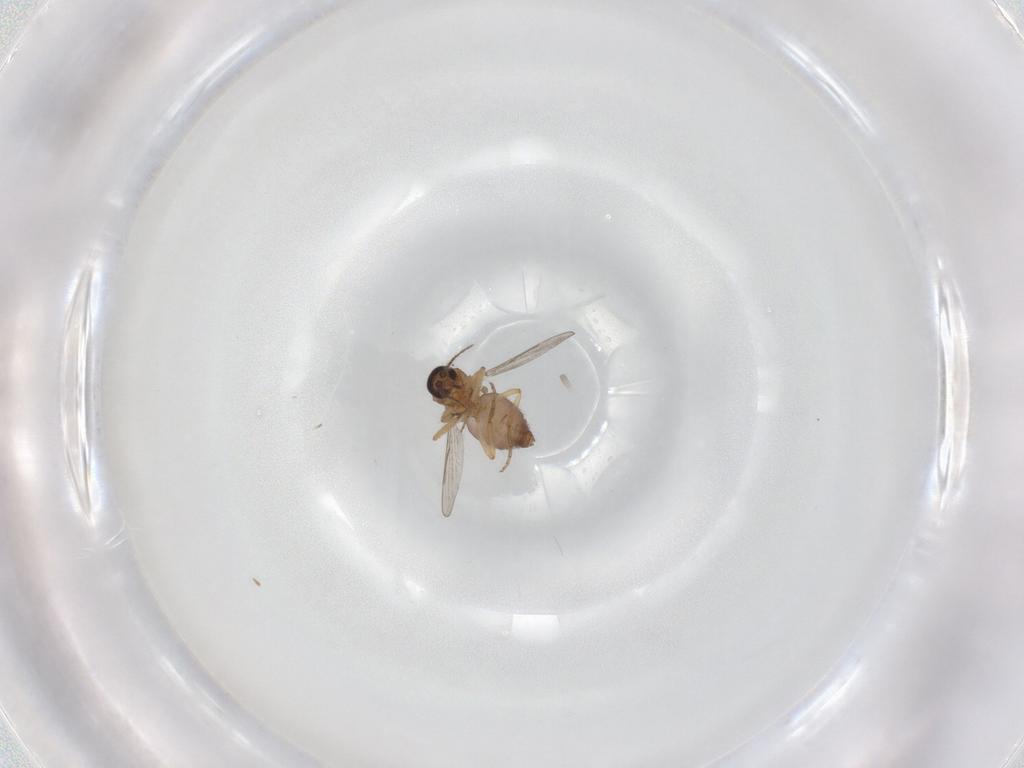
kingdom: Animalia
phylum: Arthropoda
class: Insecta
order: Diptera
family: Ceratopogonidae
